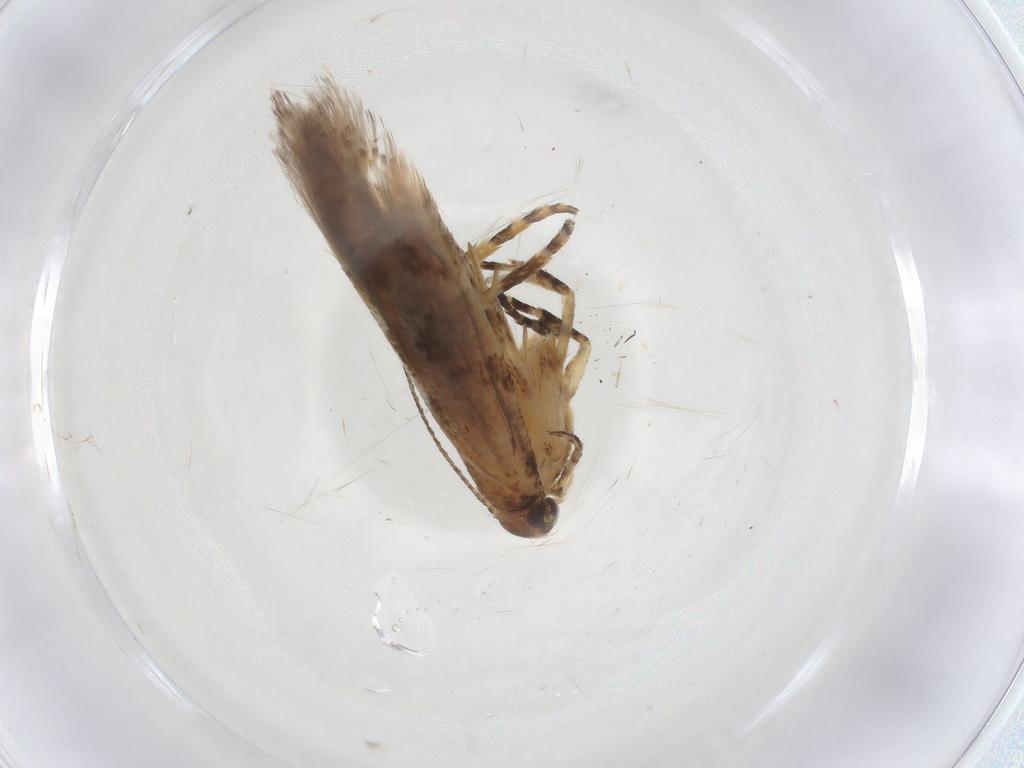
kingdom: Animalia
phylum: Arthropoda
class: Insecta
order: Lepidoptera
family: Gelechiidae
